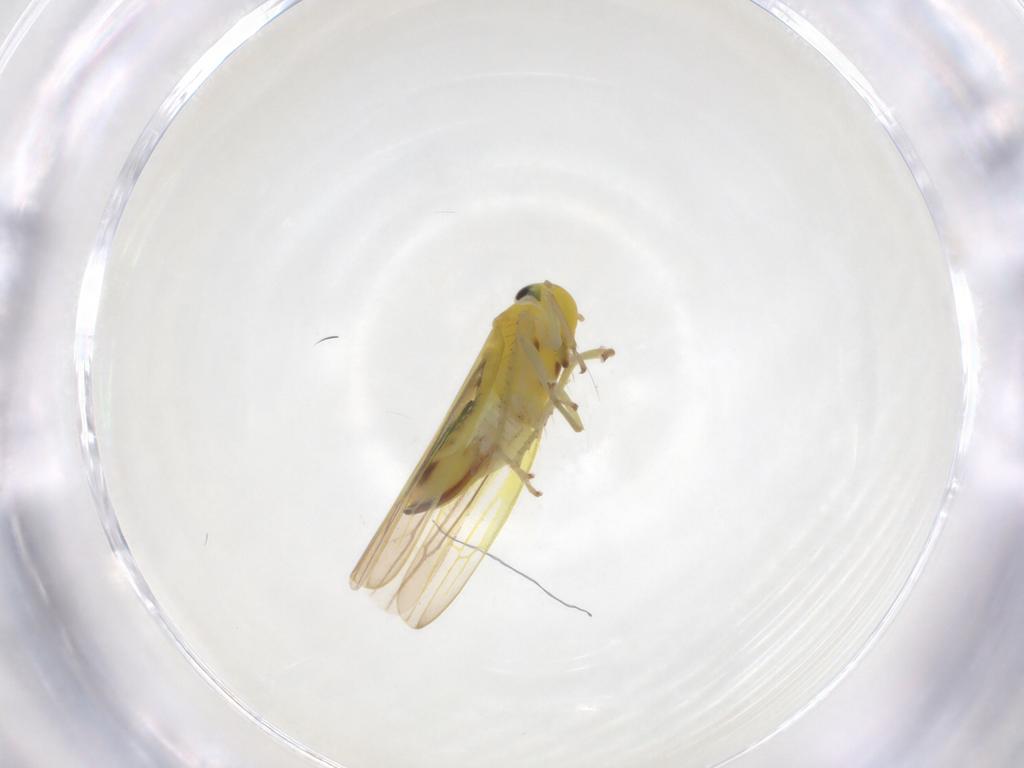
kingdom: Animalia
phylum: Arthropoda
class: Insecta
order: Hemiptera
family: Cicadellidae
